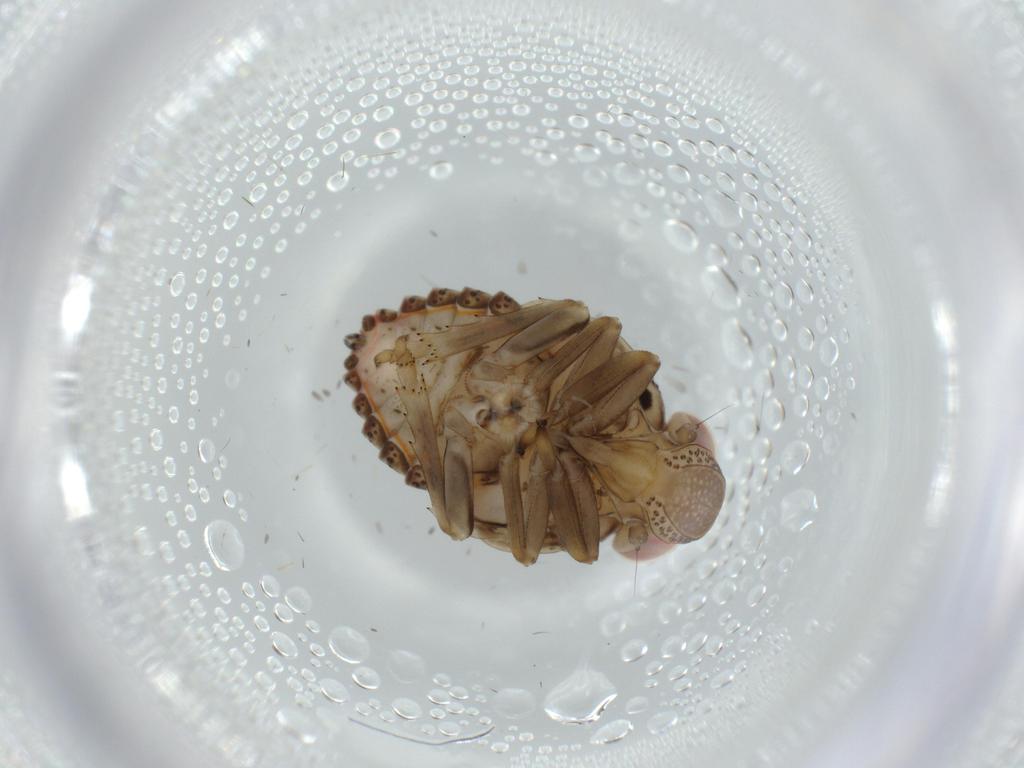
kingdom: Animalia
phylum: Arthropoda
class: Insecta
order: Hemiptera
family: Issidae
